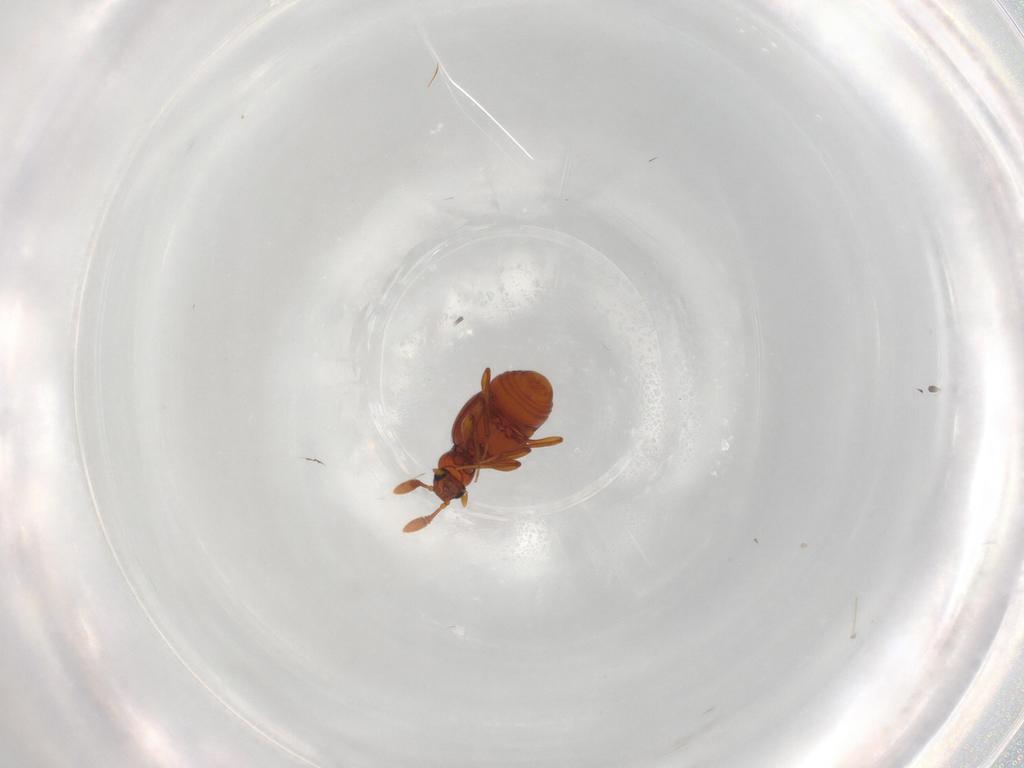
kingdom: Animalia
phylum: Arthropoda
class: Insecta
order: Coleoptera
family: Staphylinidae
